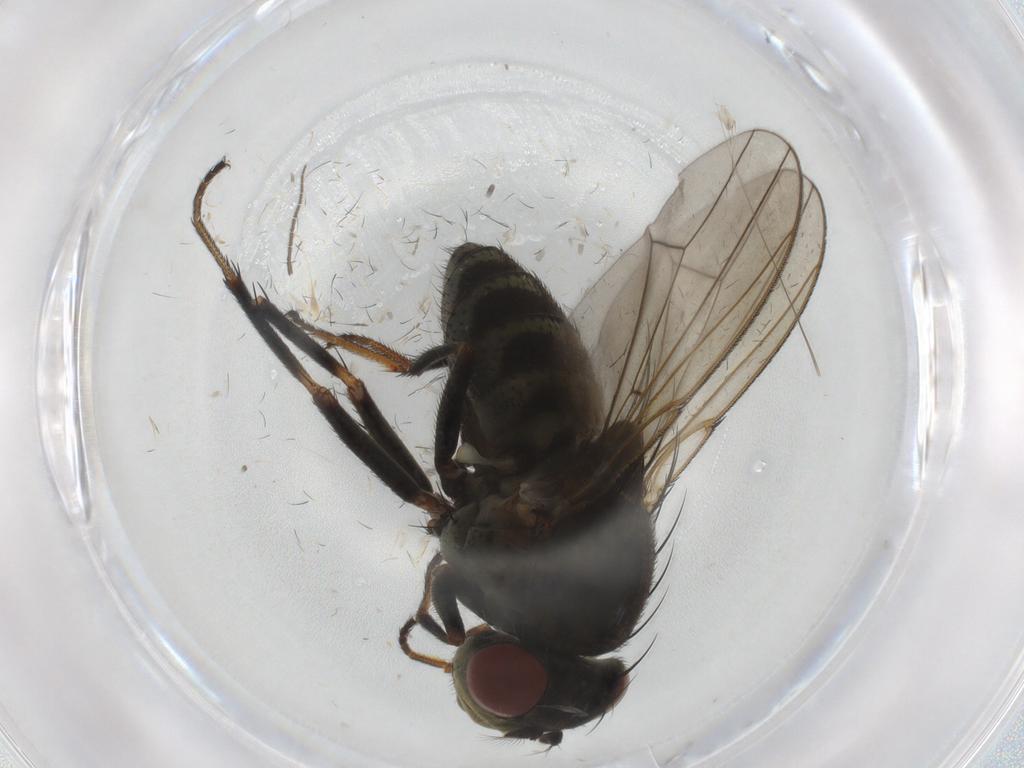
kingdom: Animalia
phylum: Arthropoda
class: Insecta
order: Diptera
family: Ephydridae
